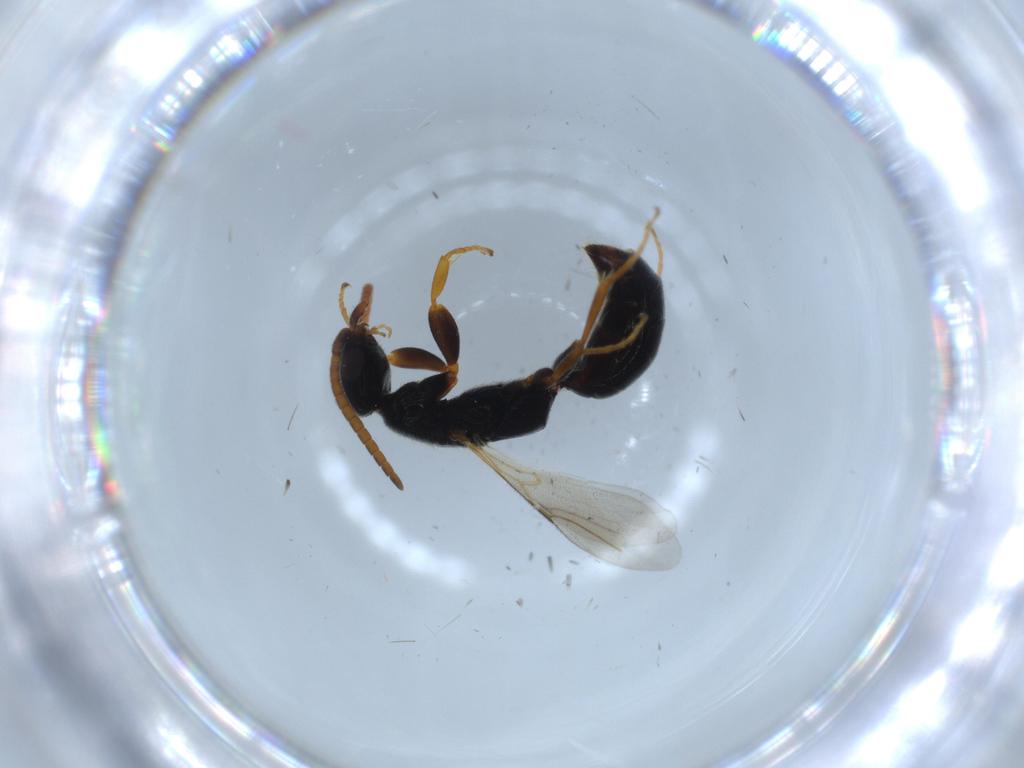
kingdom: Animalia
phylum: Arthropoda
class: Insecta
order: Hymenoptera
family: Bethylidae
